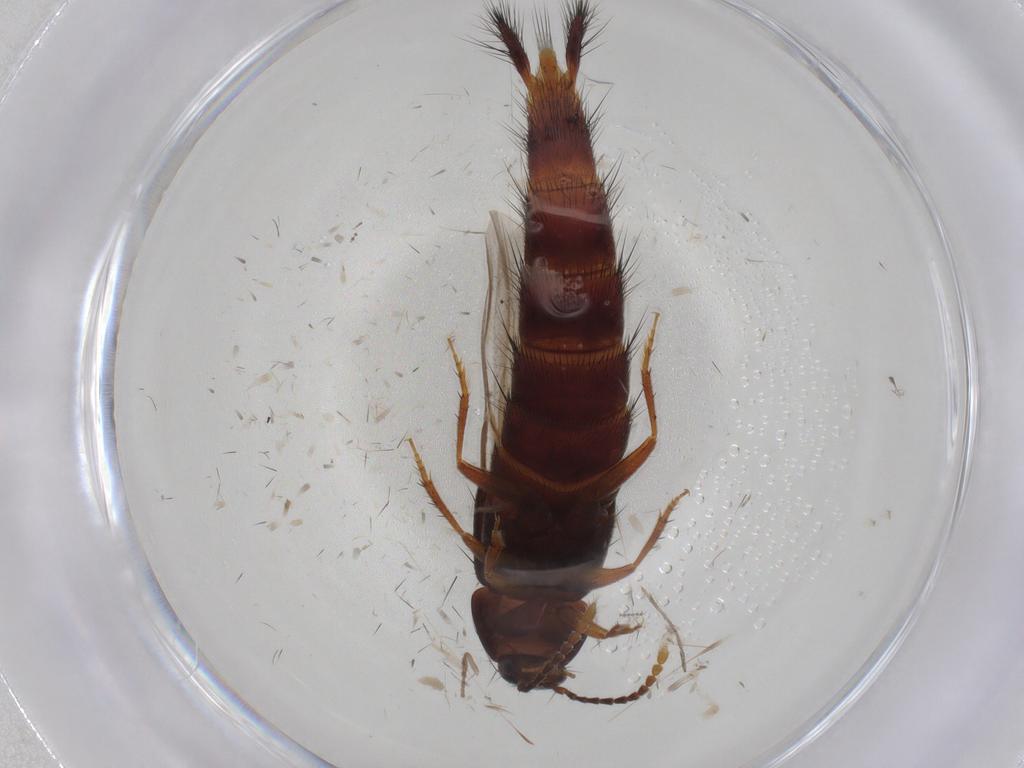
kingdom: Animalia
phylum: Arthropoda
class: Insecta
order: Coleoptera
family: Staphylinidae
